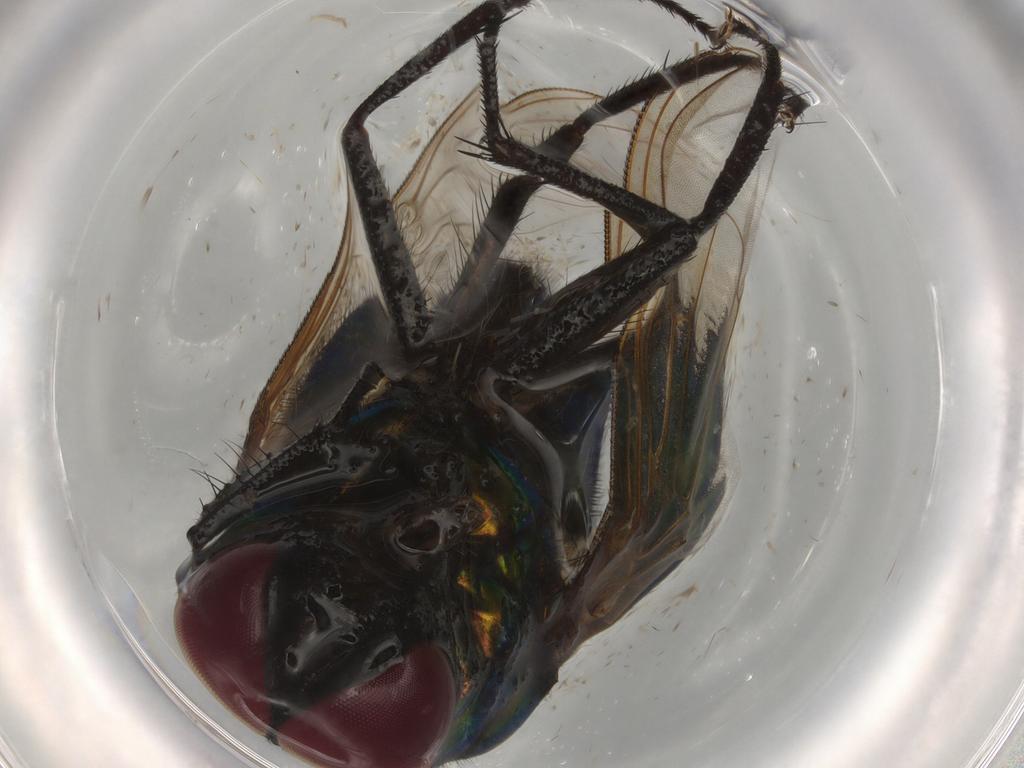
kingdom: Animalia
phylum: Arthropoda
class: Insecta
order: Diptera
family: Muscidae
